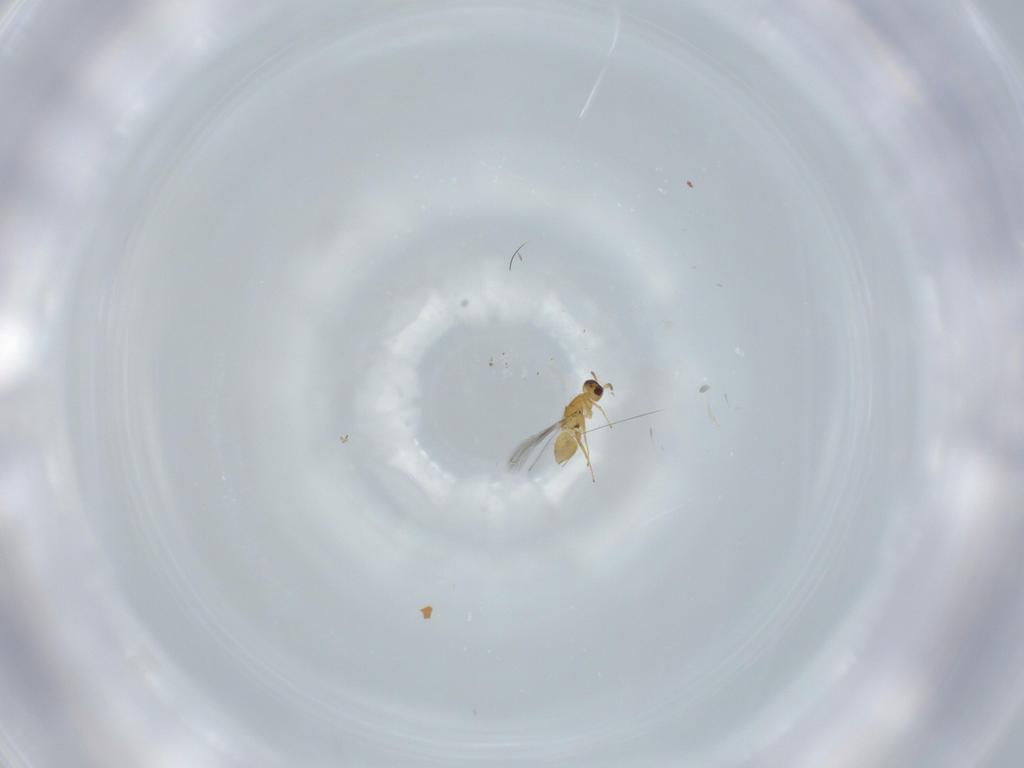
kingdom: Animalia
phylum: Arthropoda
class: Insecta
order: Hymenoptera
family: Mymaridae
